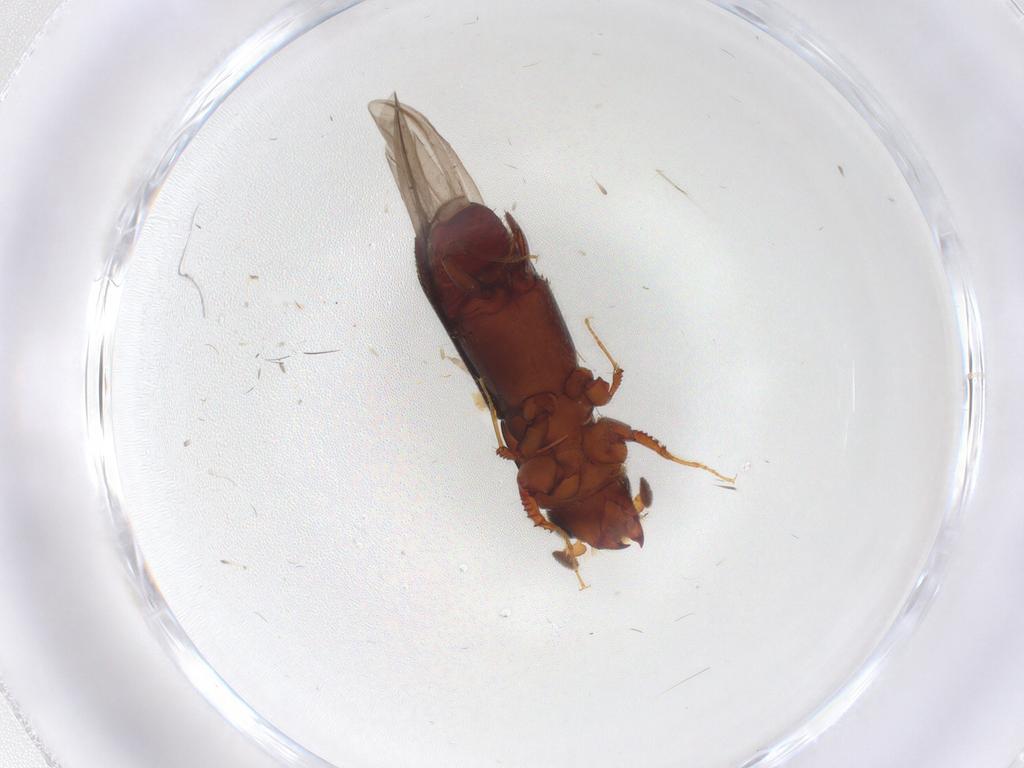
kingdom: Animalia
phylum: Arthropoda
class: Insecta
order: Coleoptera
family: Curculionidae
